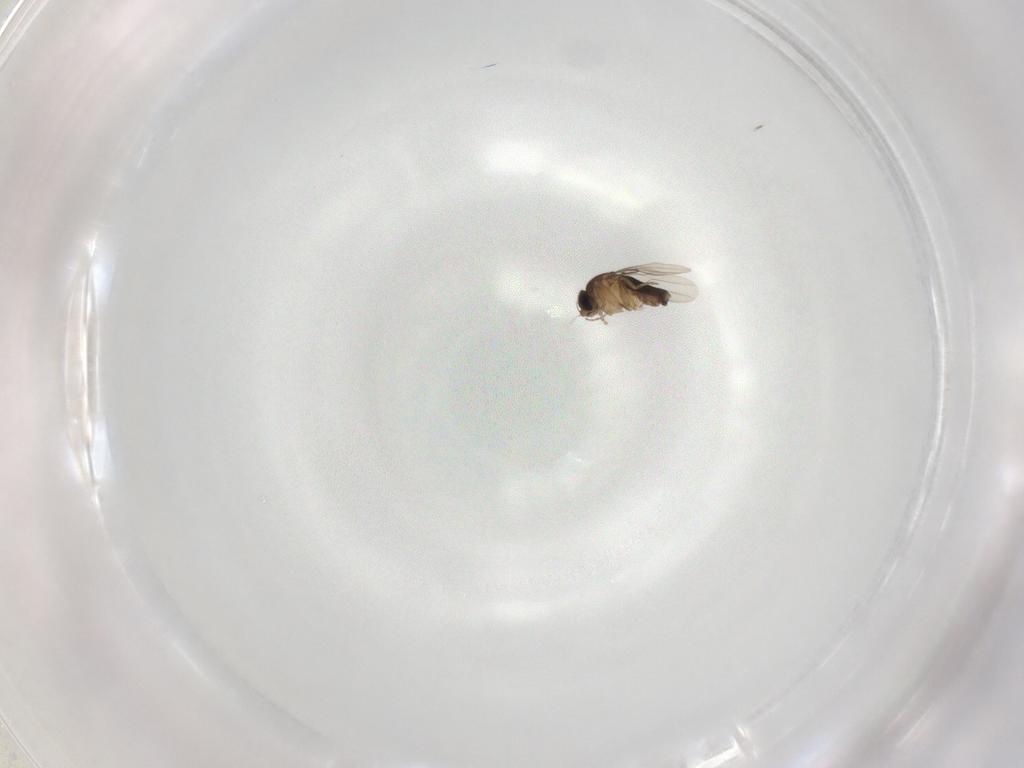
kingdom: Animalia
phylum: Arthropoda
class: Insecta
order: Diptera
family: Phoridae
